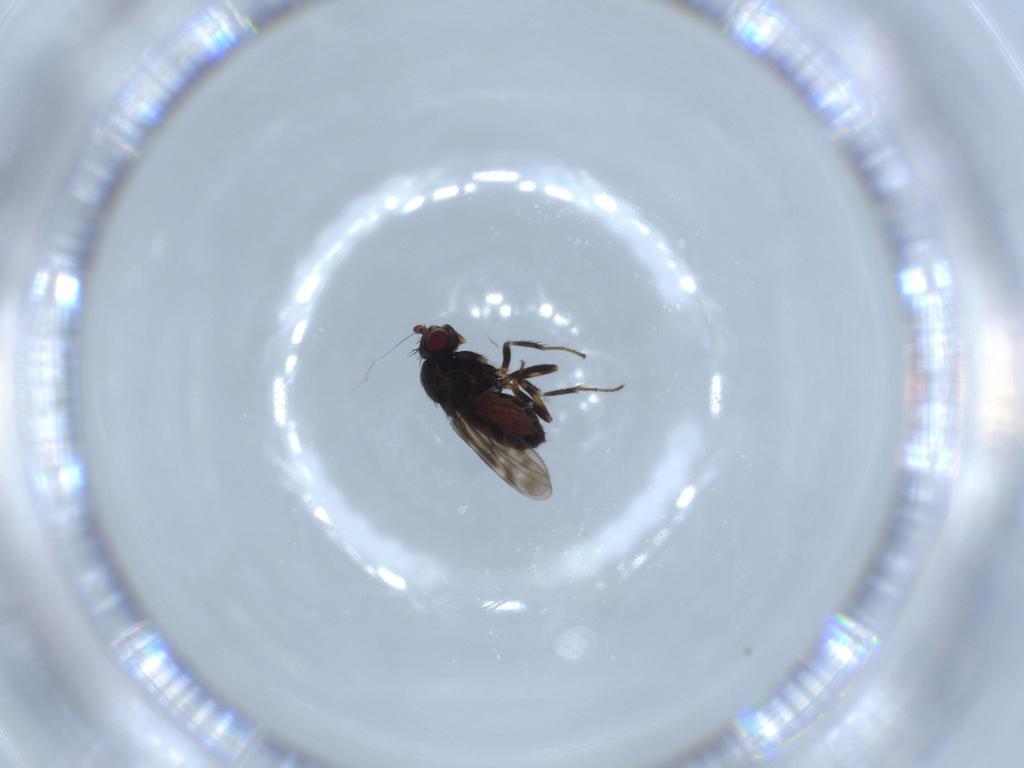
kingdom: Animalia
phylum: Arthropoda
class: Insecta
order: Diptera
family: Sphaeroceridae
